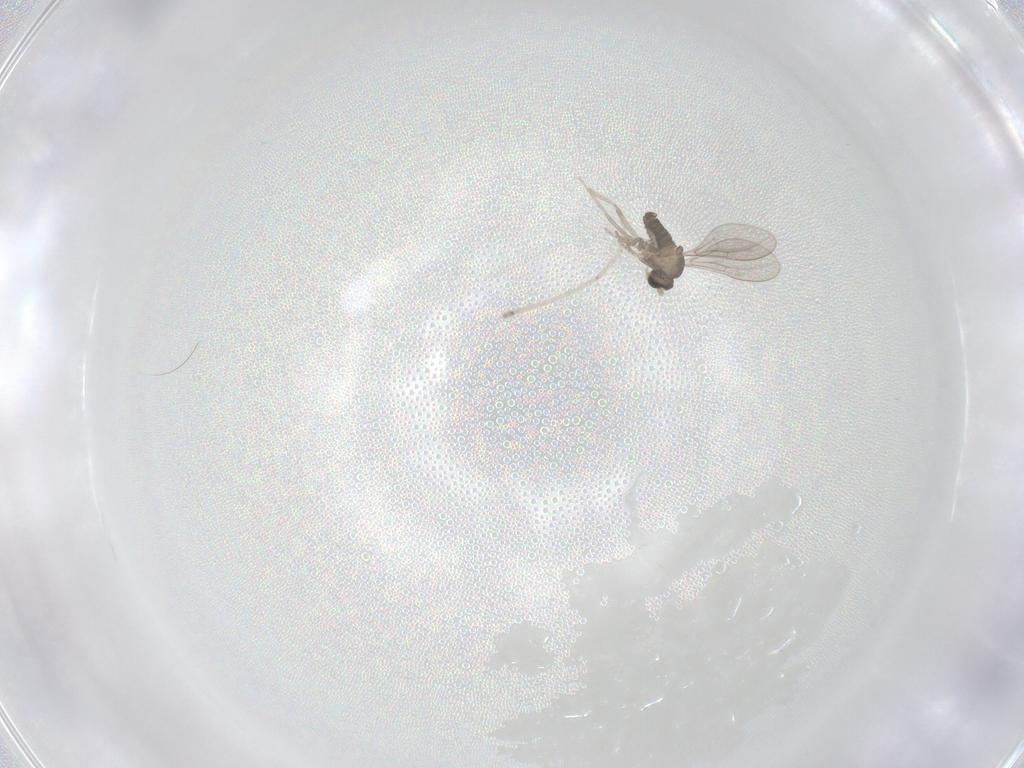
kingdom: Animalia
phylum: Arthropoda
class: Insecta
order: Diptera
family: Cecidomyiidae
